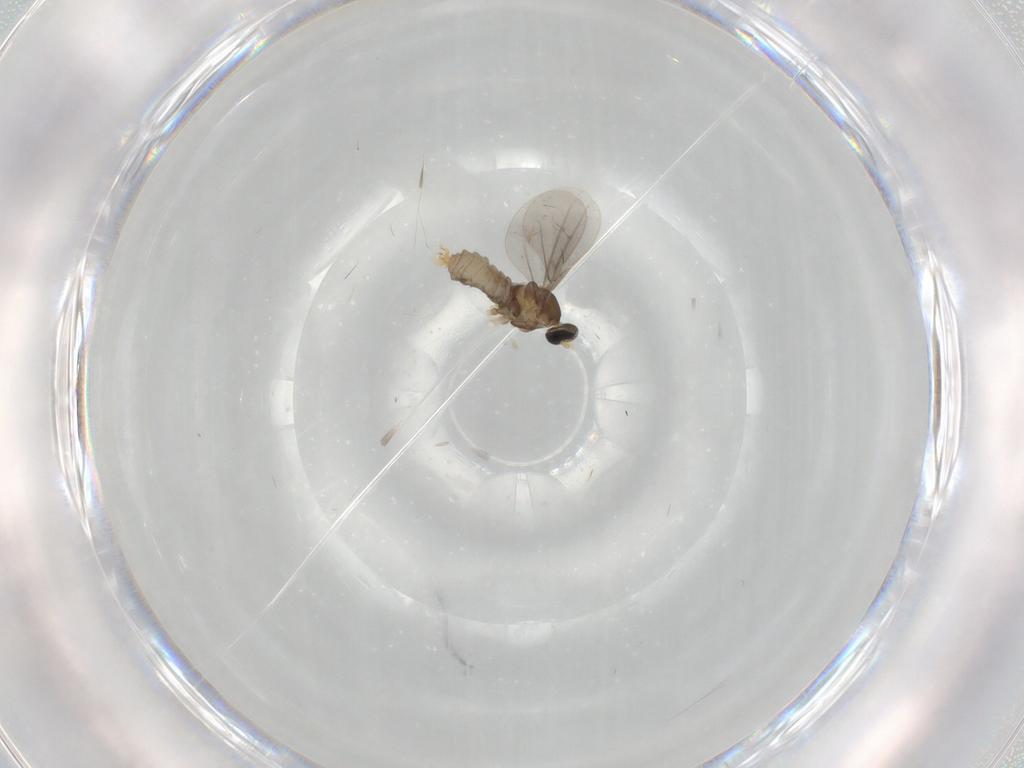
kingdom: Animalia
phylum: Arthropoda
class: Insecta
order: Diptera
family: Cecidomyiidae
